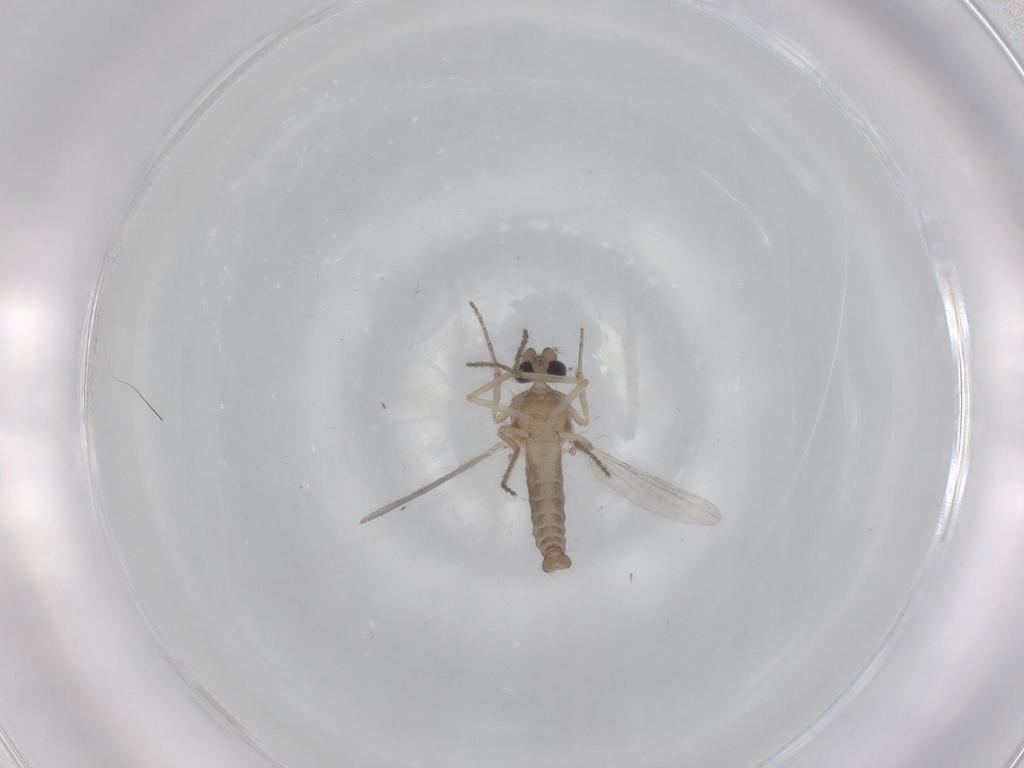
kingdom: Animalia
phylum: Arthropoda
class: Insecta
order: Diptera
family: Ceratopogonidae
